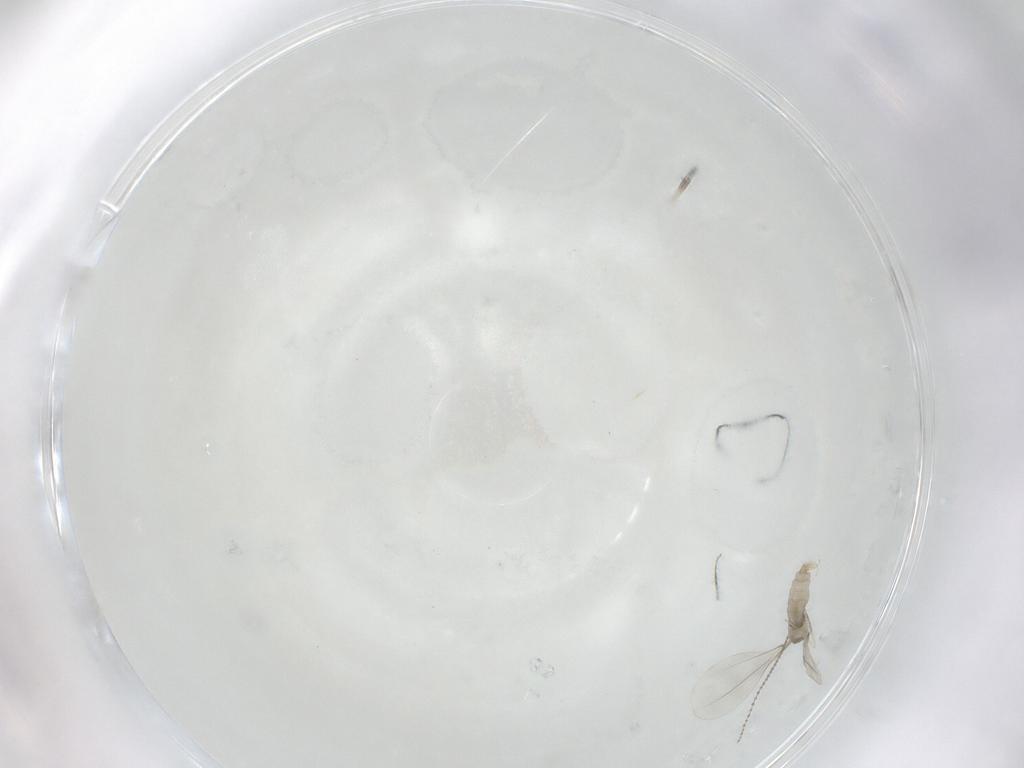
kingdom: Animalia
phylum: Arthropoda
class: Insecta
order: Diptera
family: Cecidomyiidae
